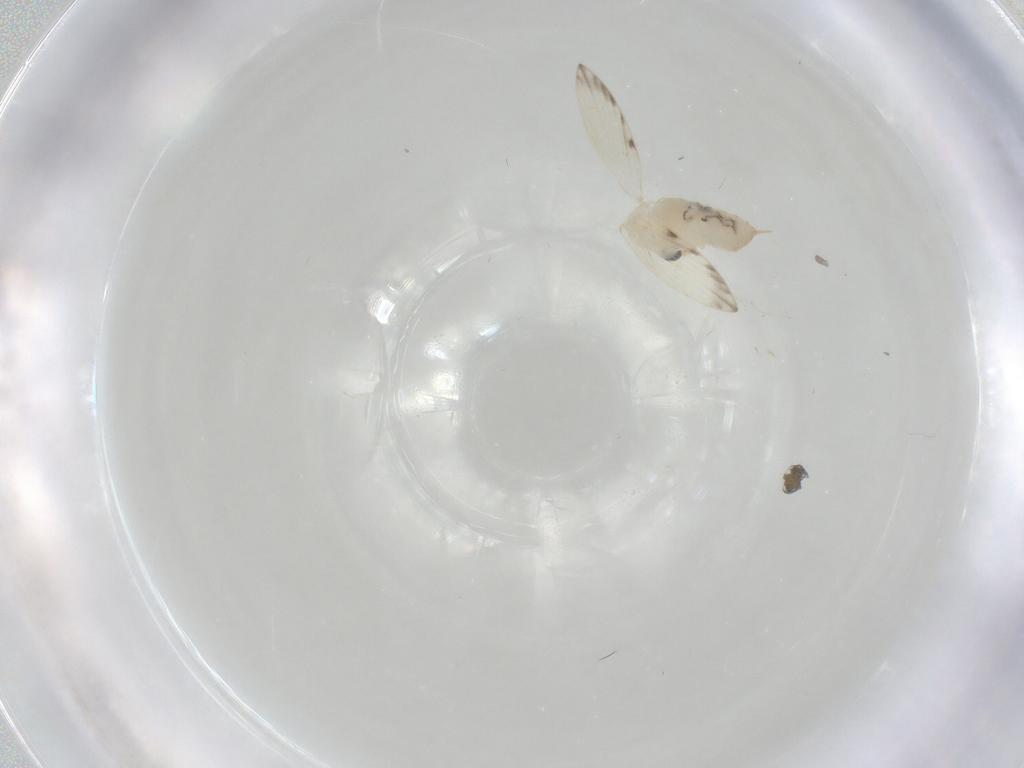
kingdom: Animalia
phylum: Arthropoda
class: Insecta
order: Diptera
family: Psychodidae
